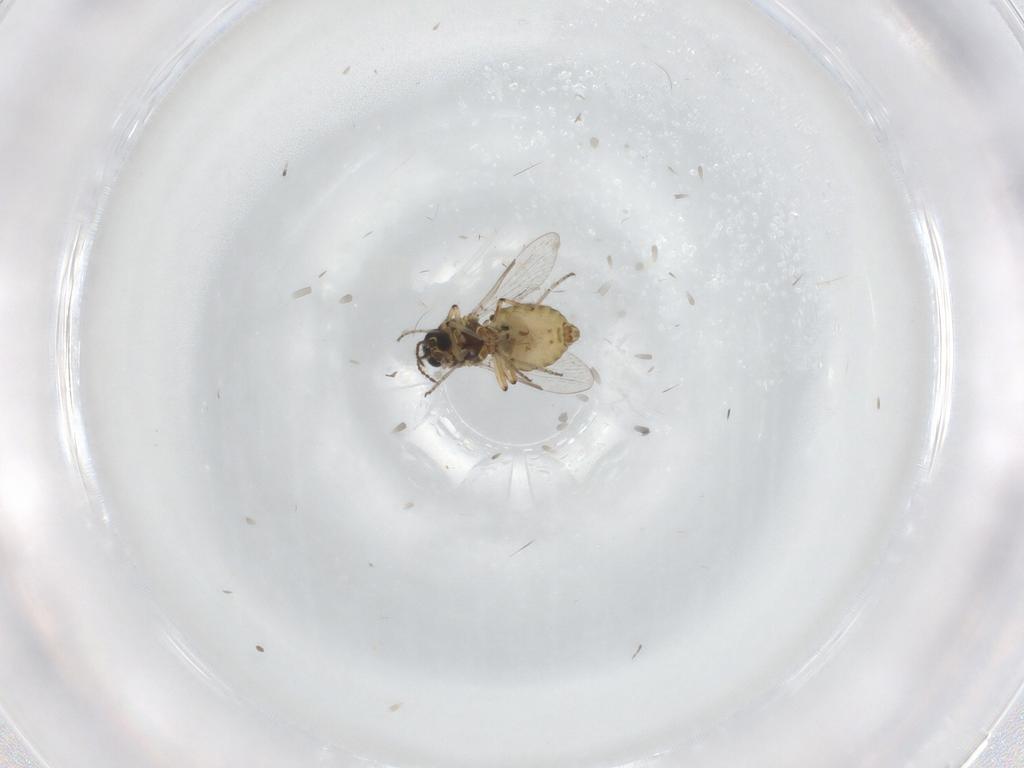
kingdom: Animalia
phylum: Arthropoda
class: Insecta
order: Diptera
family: Ceratopogonidae
